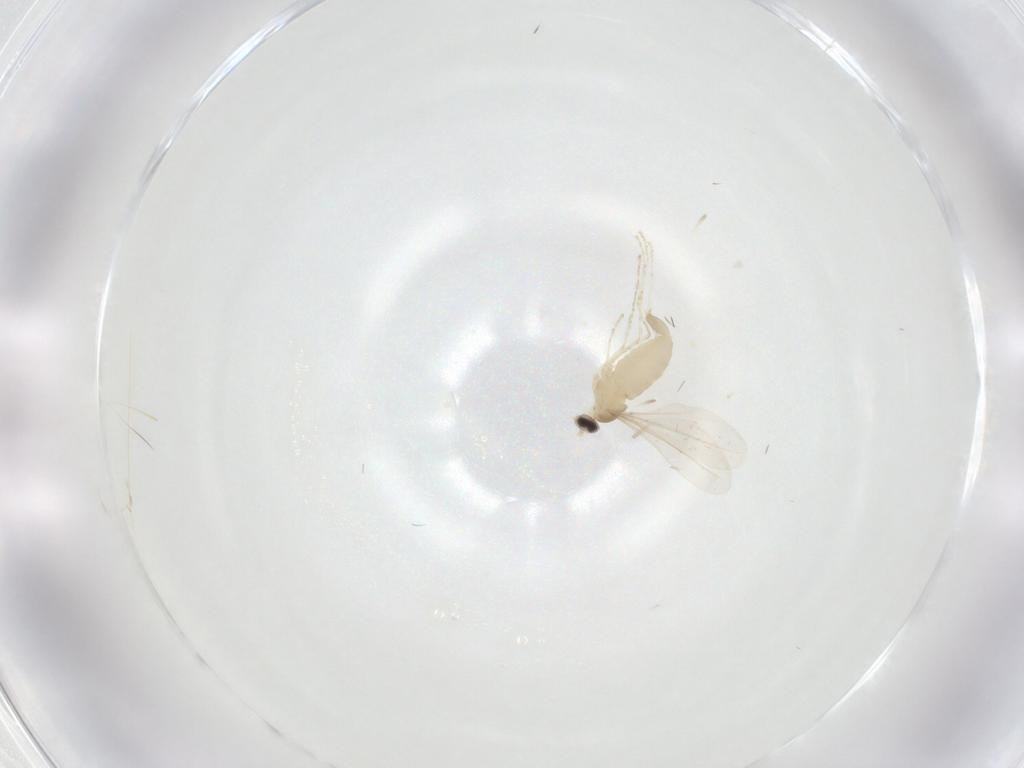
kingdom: Animalia
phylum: Arthropoda
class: Insecta
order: Diptera
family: Cecidomyiidae
